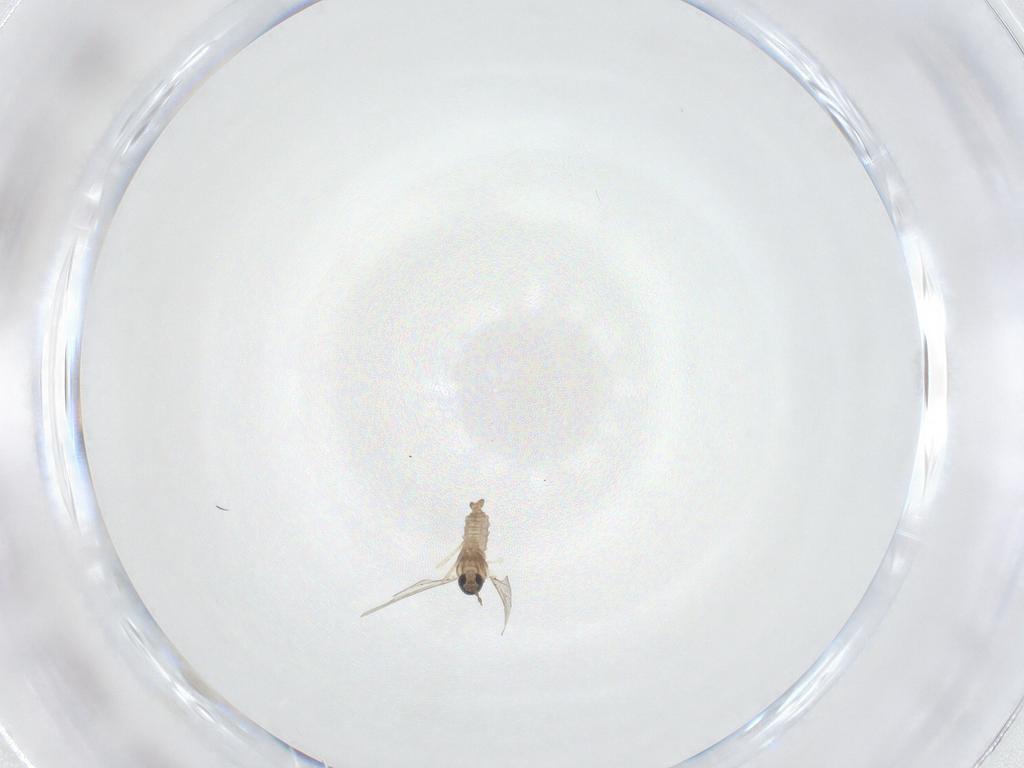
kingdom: Animalia
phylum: Arthropoda
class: Insecta
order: Diptera
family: Cecidomyiidae
